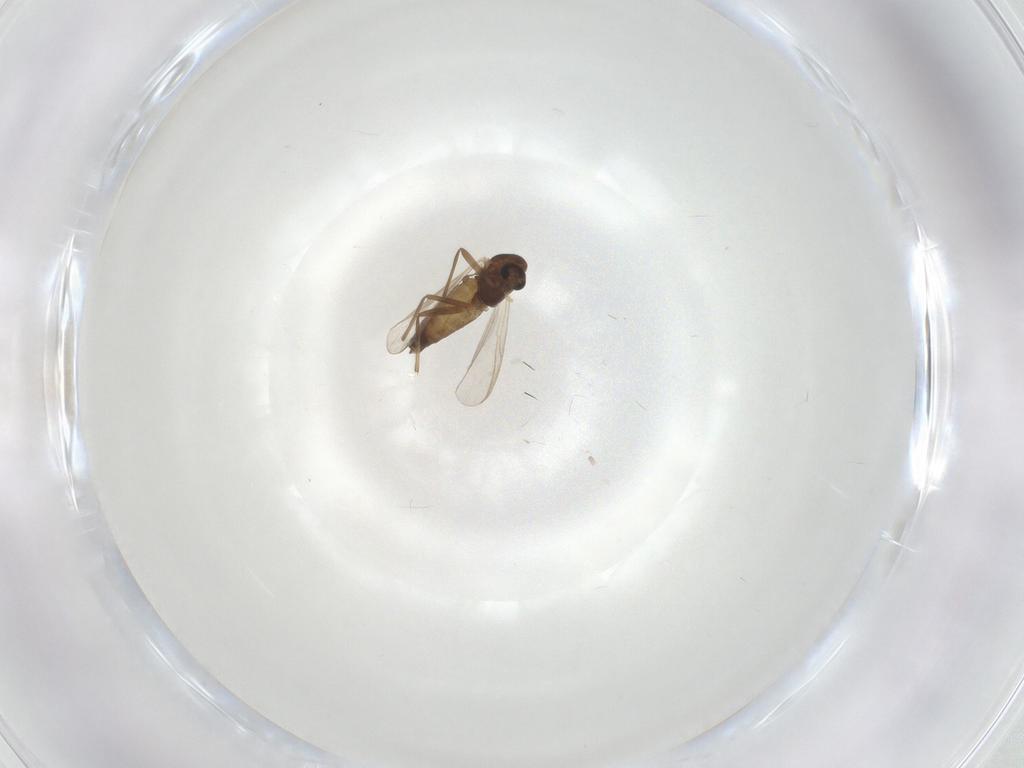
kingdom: Animalia
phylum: Arthropoda
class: Insecta
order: Diptera
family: Chironomidae
